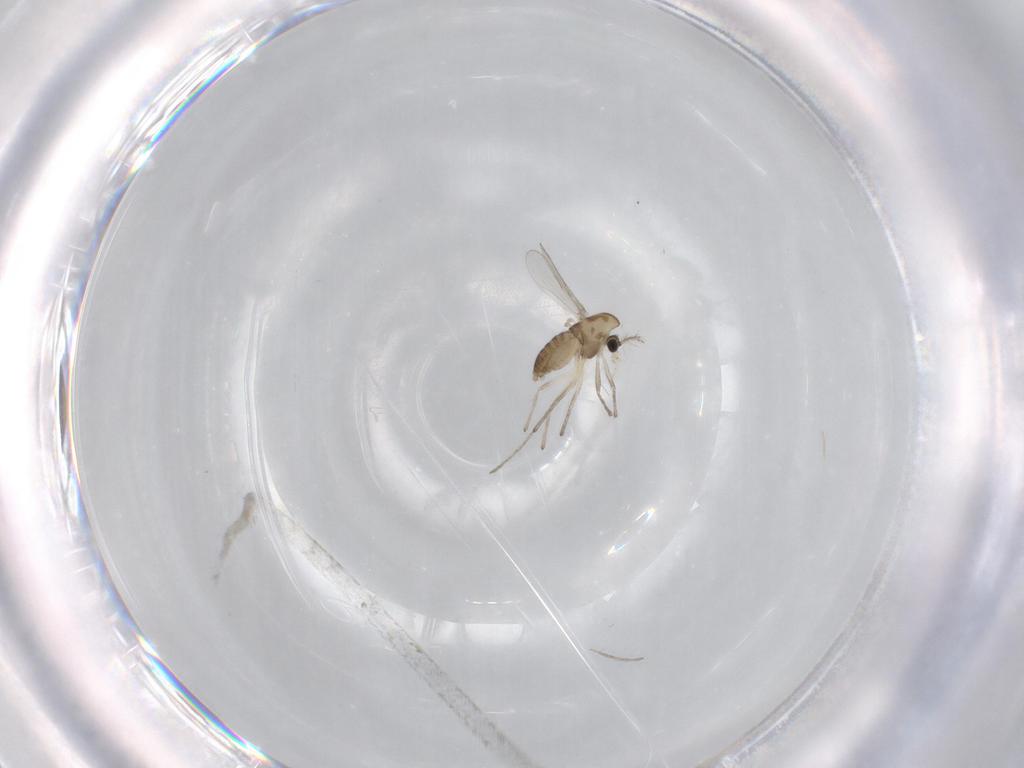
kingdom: Animalia
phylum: Arthropoda
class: Insecta
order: Diptera
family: Chironomidae
